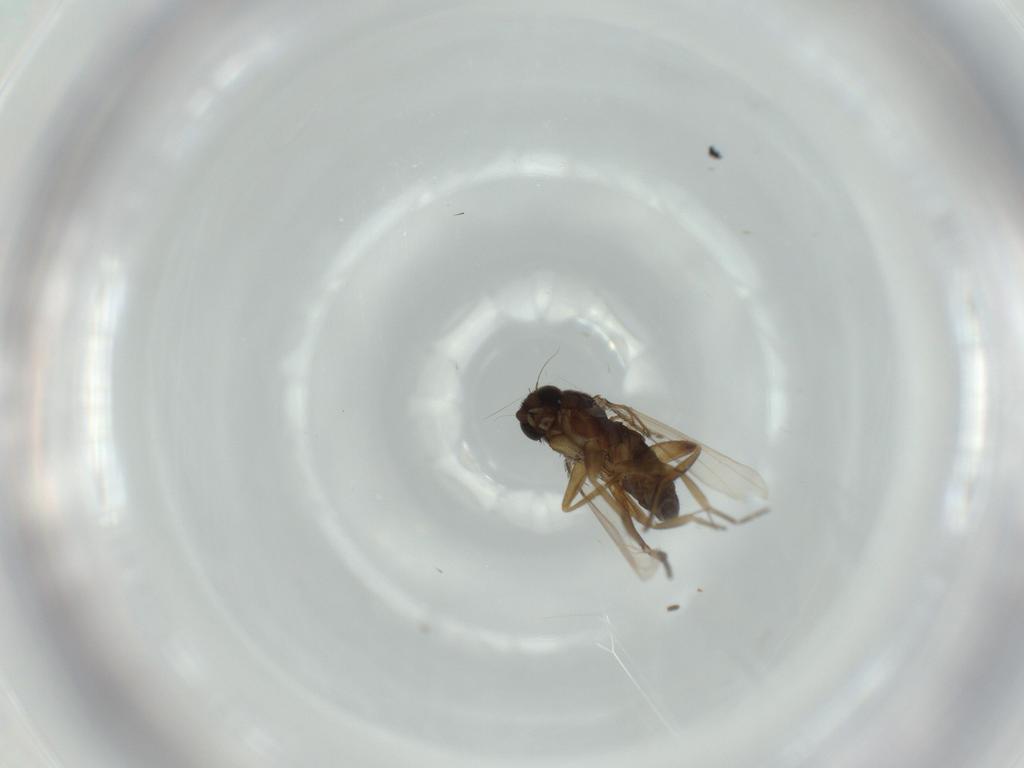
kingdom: Animalia
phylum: Arthropoda
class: Insecta
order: Diptera
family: Phoridae
